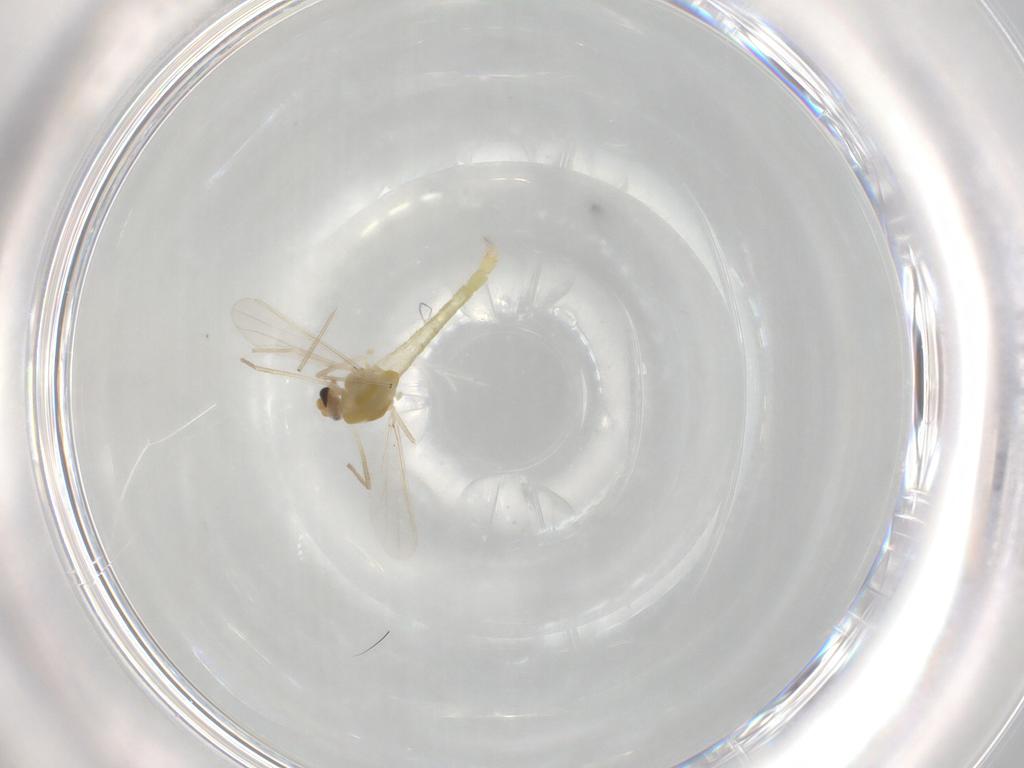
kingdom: Animalia
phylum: Arthropoda
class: Insecta
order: Diptera
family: Chironomidae
